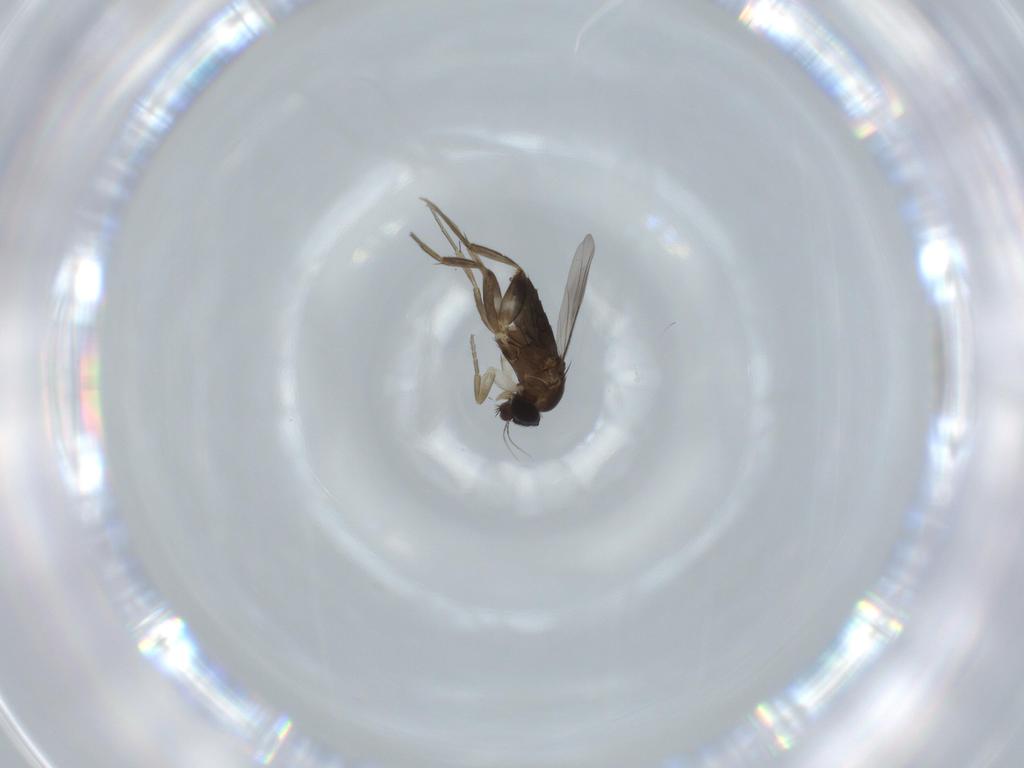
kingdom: Animalia
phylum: Arthropoda
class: Insecta
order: Diptera
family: Phoridae
